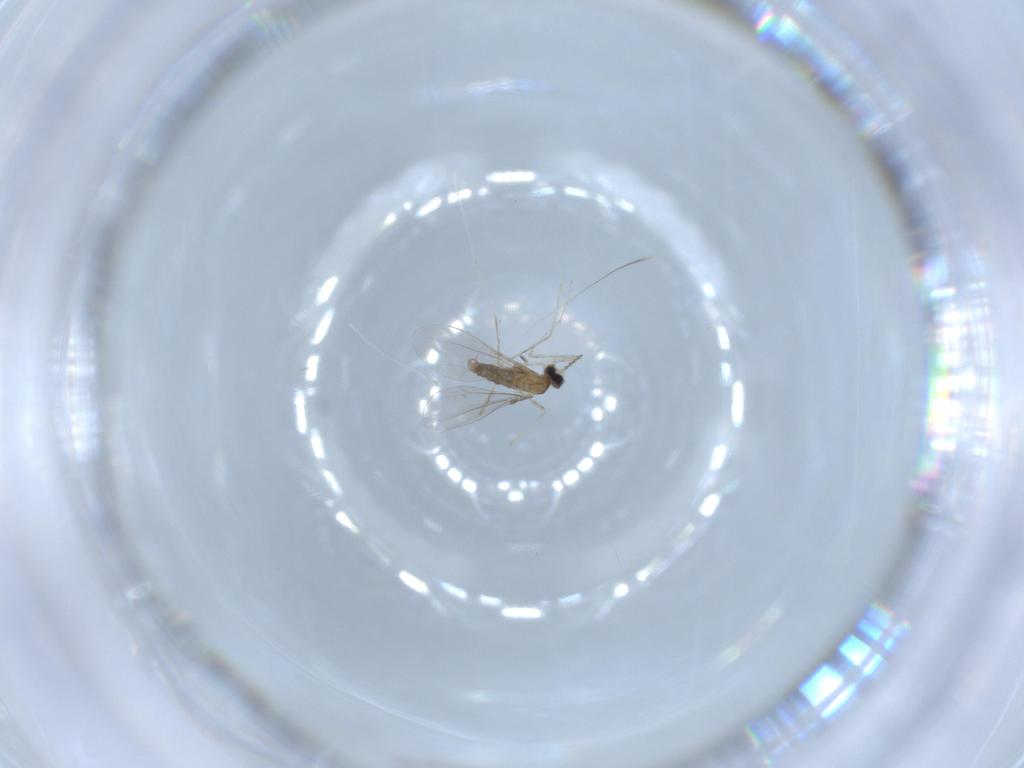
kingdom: Animalia
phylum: Arthropoda
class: Insecta
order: Diptera
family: Cecidomyiidae
